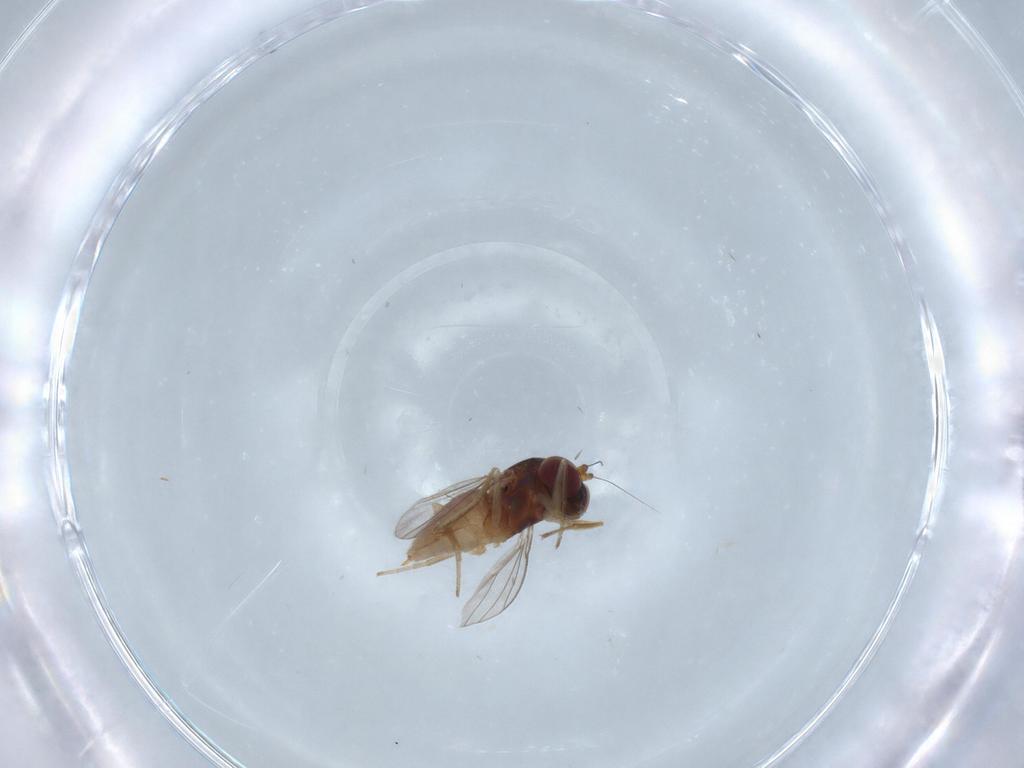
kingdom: Animalia
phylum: Arthropoda
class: Insecta
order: Diptera
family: Dolichopodidae
